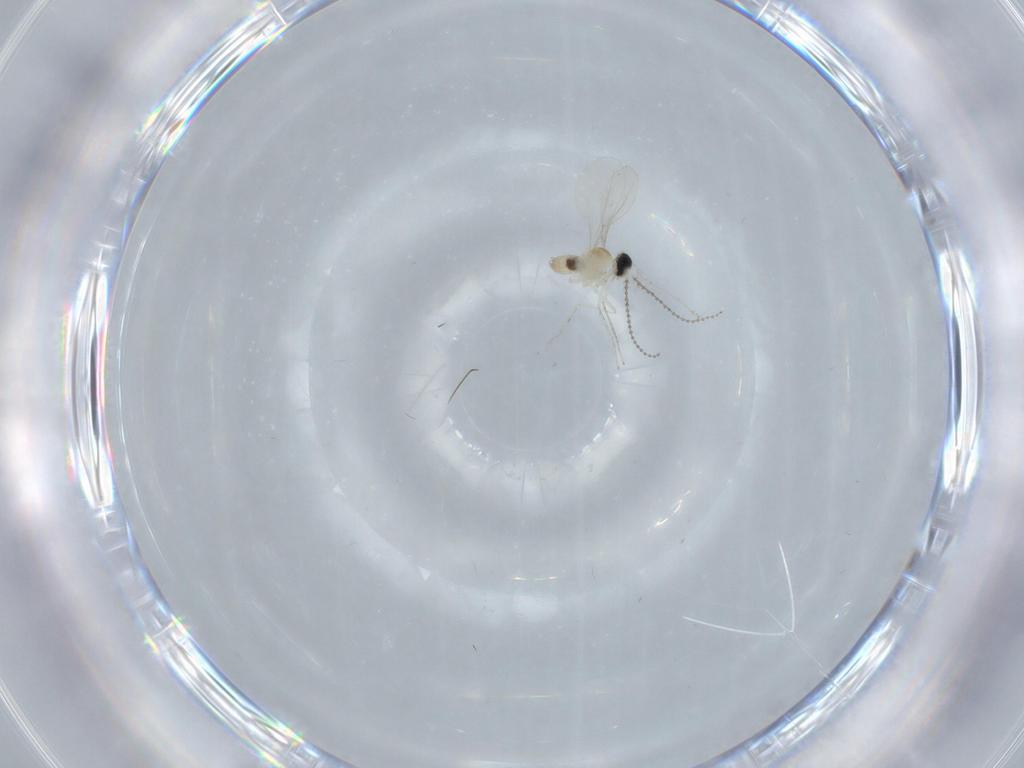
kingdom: Animalia
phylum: Arthropoda
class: Insecta
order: Diptera
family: Cecidomyiidae
